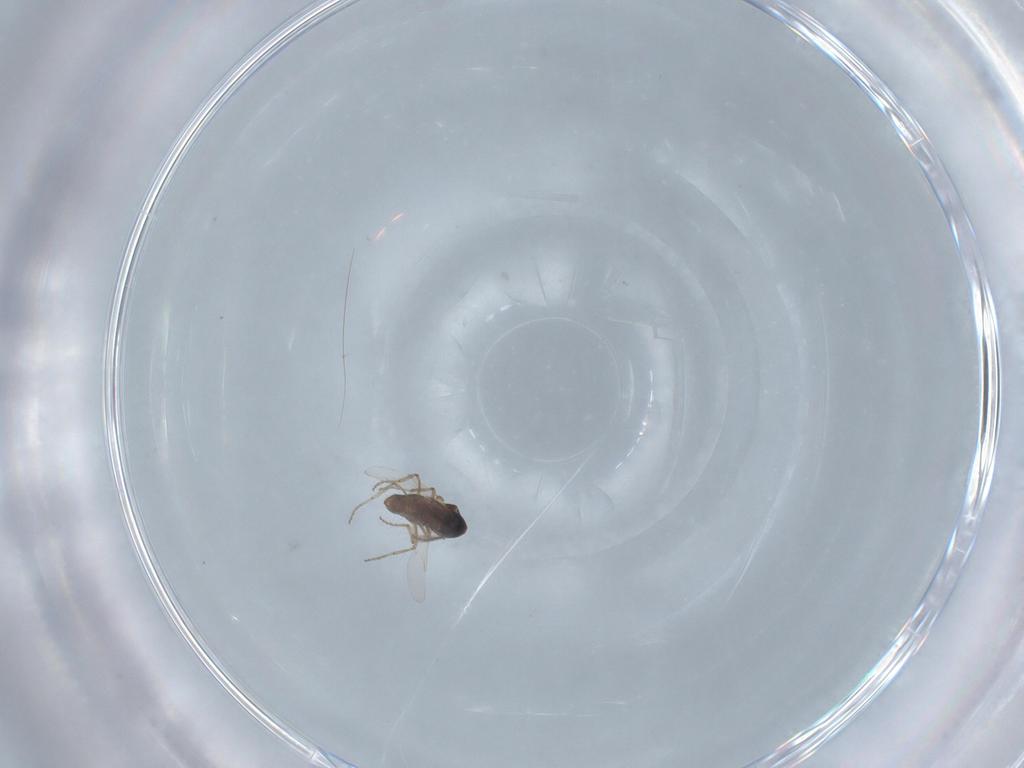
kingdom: Animalia
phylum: Arthropoda
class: Insecta
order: Diptera
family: Ceratopogonidae
